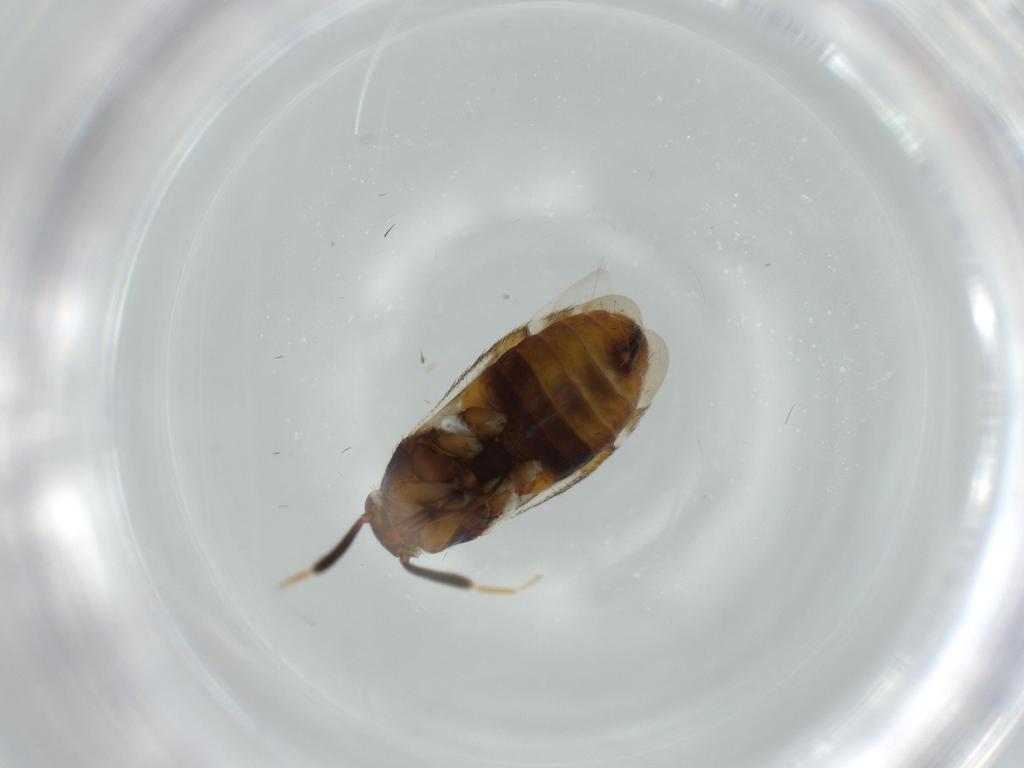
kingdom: Animalia
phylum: Arthropoda
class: Insecta
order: Hemiptera
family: Miridae
